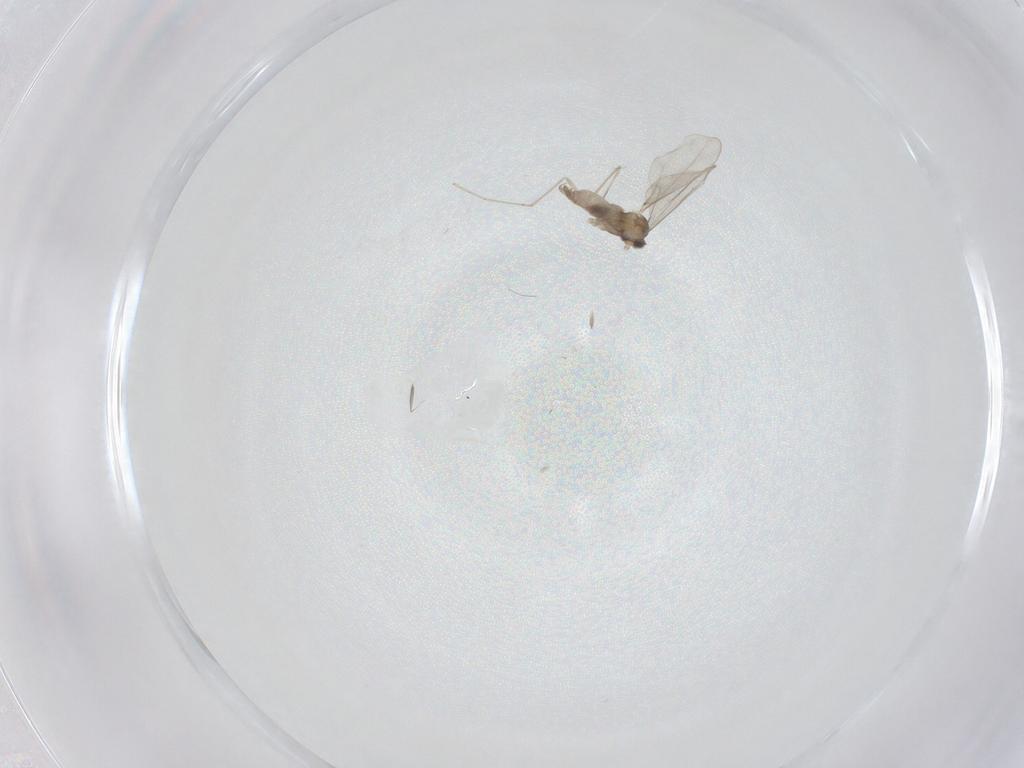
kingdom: Animalia
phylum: Arthropoda
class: Insecta
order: Diptera
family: Cecidomyiidae
